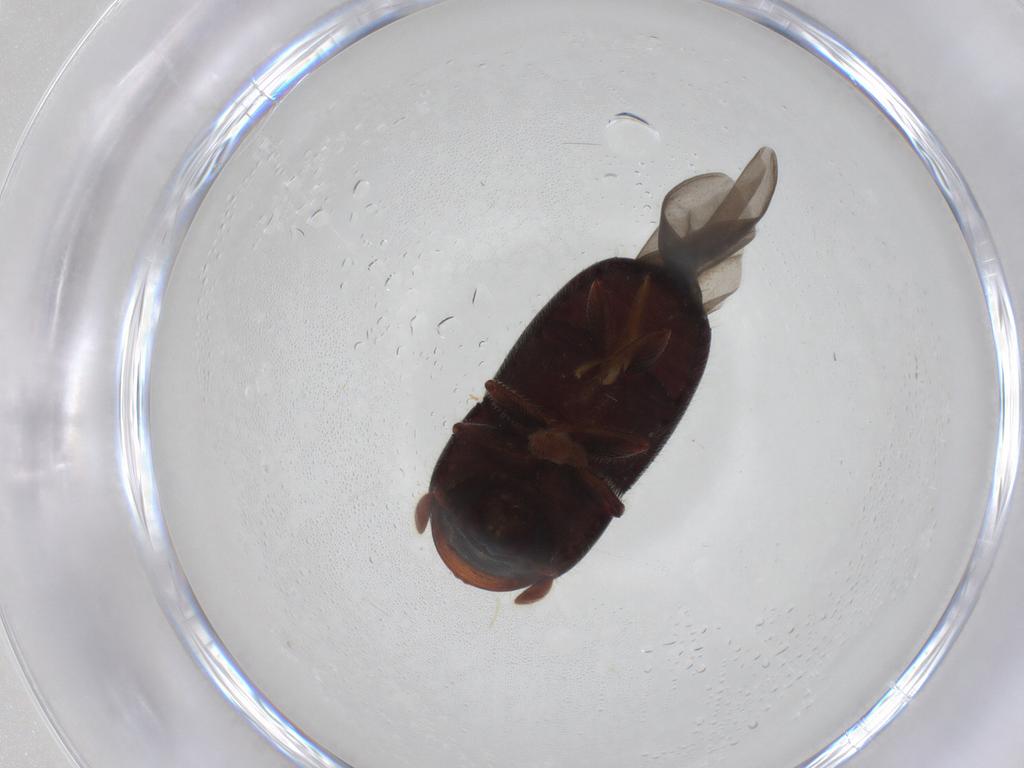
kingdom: Animalia
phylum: Arthropoda
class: Insecta
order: Coleoptera
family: Curculionidae
